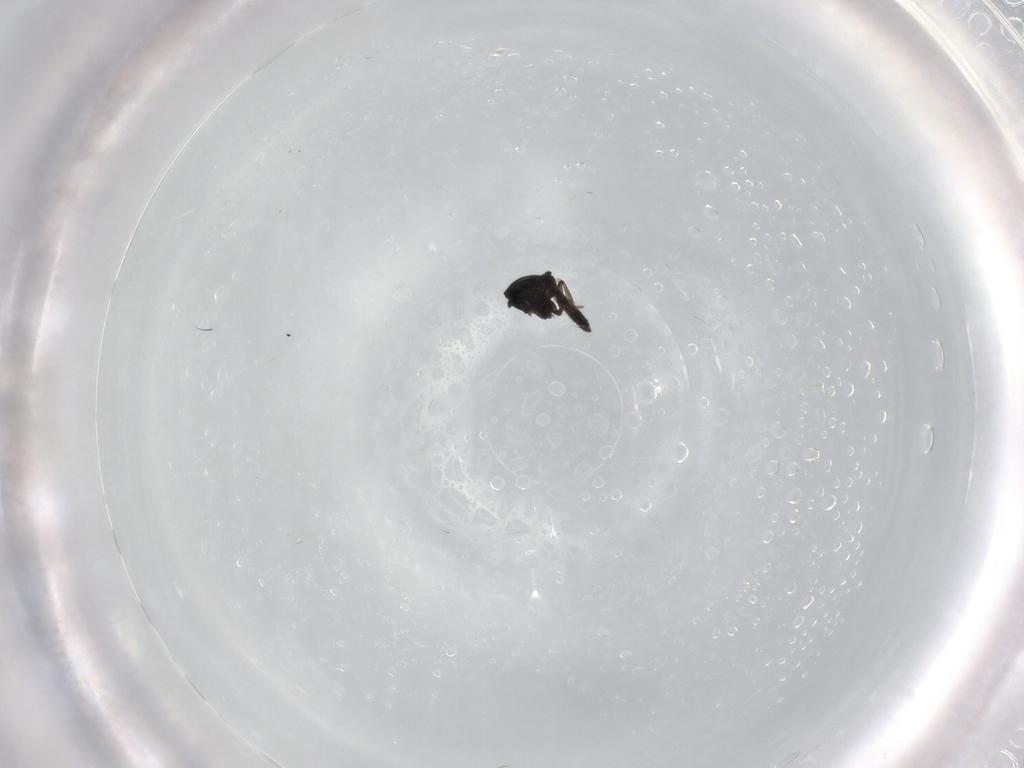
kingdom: Animalia
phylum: Arthropoda
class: Insecta
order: Diptera
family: Ceratopogonidae
